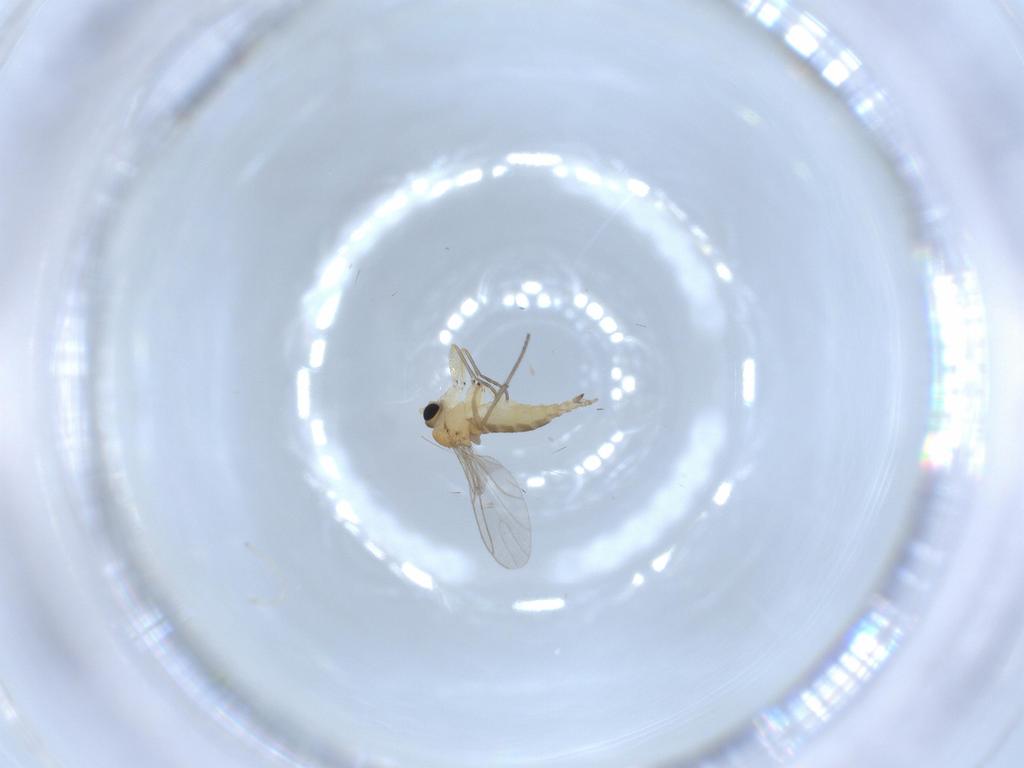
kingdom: Animalia
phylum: Arthropoda
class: Insecta
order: Diptera
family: Sciaridae
